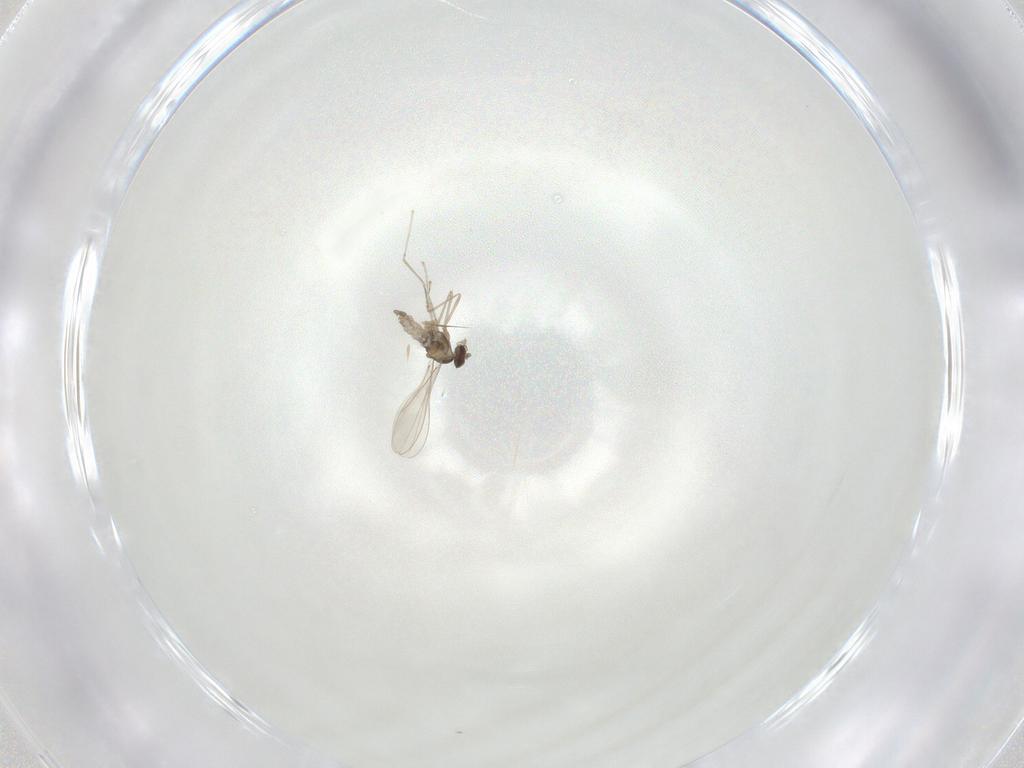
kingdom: Animalia
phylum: Arthropoda
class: Insecta
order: Diptera
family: Cecidomyiidae
